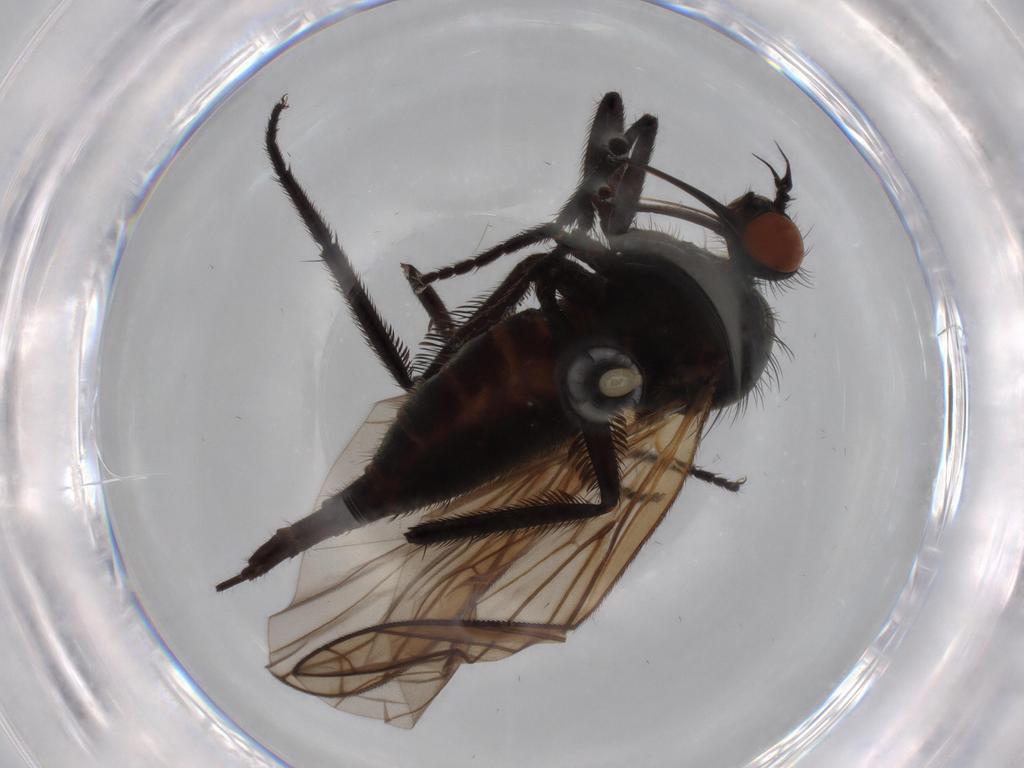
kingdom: Animalia
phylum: Arthropoda
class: Insecta
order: Diptera
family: Empididae
